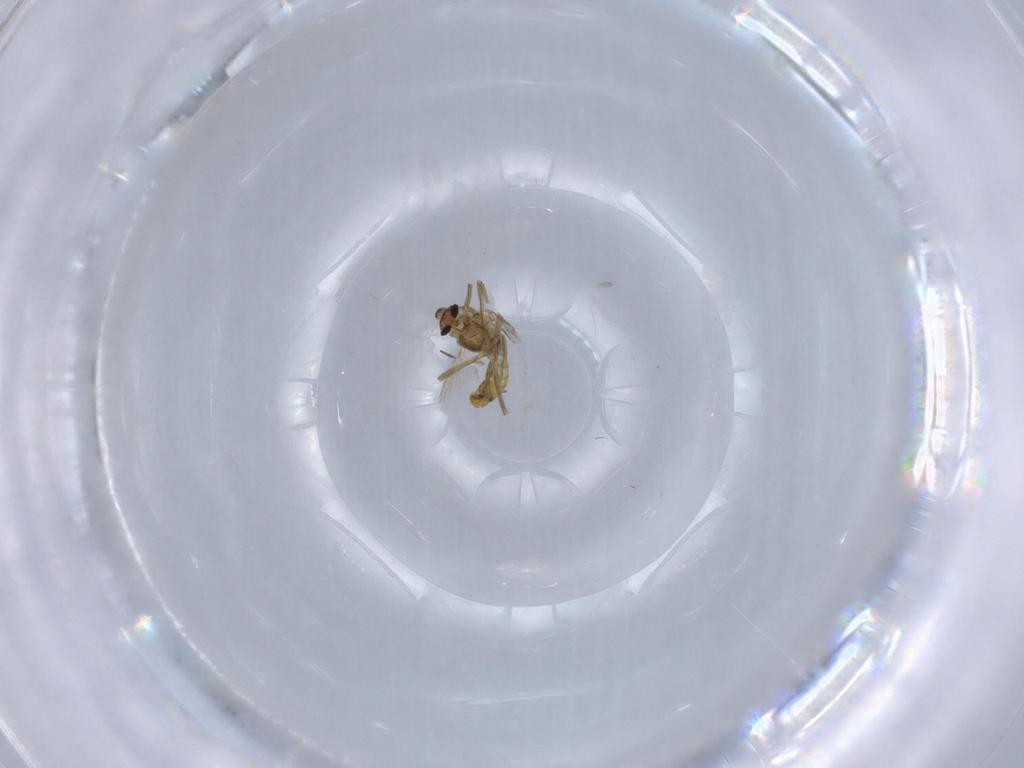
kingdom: Animalia
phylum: Arthropoda
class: Insecta
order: Diptera
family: Chironomidae
